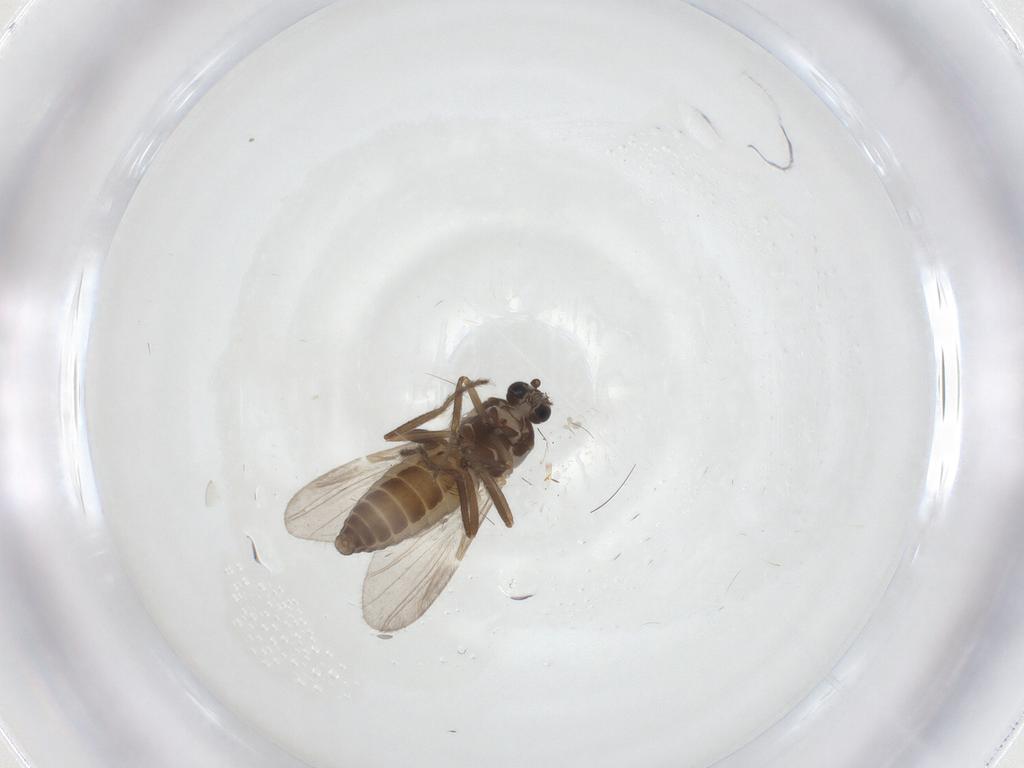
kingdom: Animalia
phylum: Arthropoda
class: Insecta
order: Diptera
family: Ceratopogonidae
